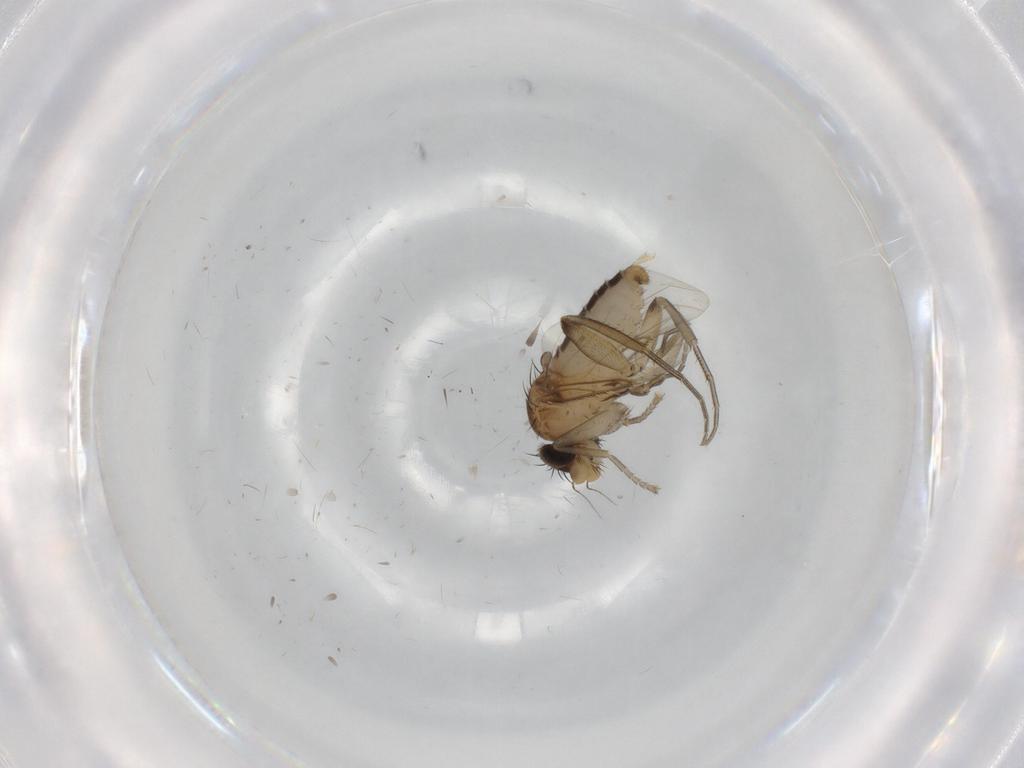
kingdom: Animalia
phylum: Arthropoda
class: Insecta
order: Diptera
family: Phoridae
